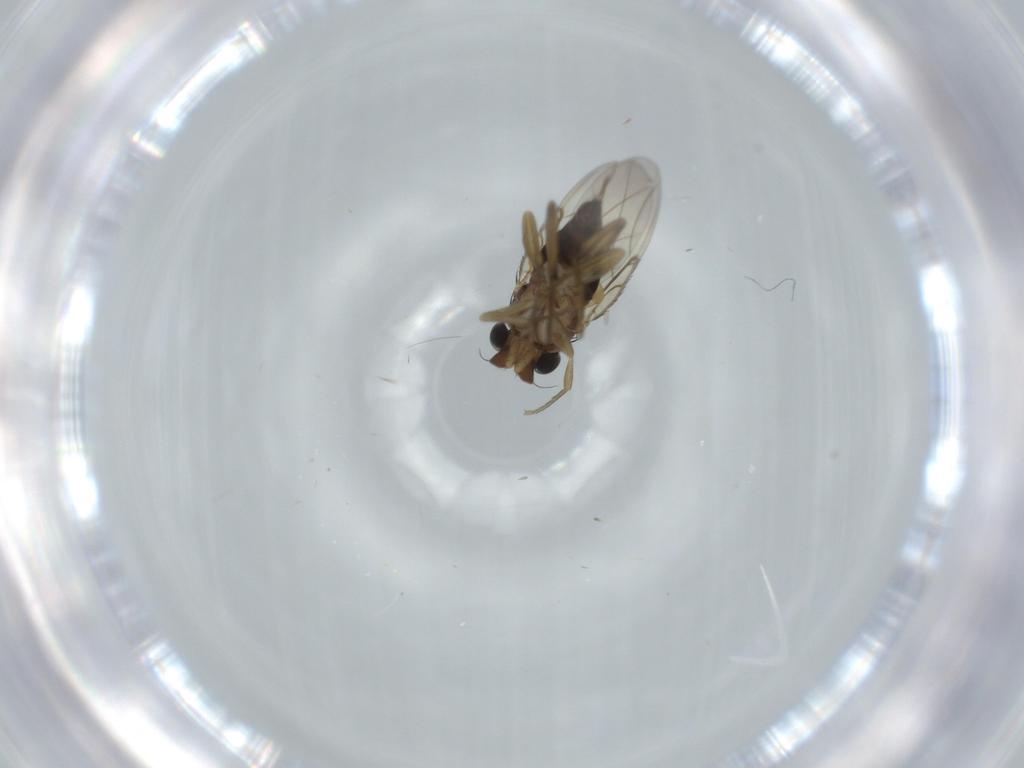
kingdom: Animalia
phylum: Arthropoda
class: Insecta
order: Diptera
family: Phoridae
